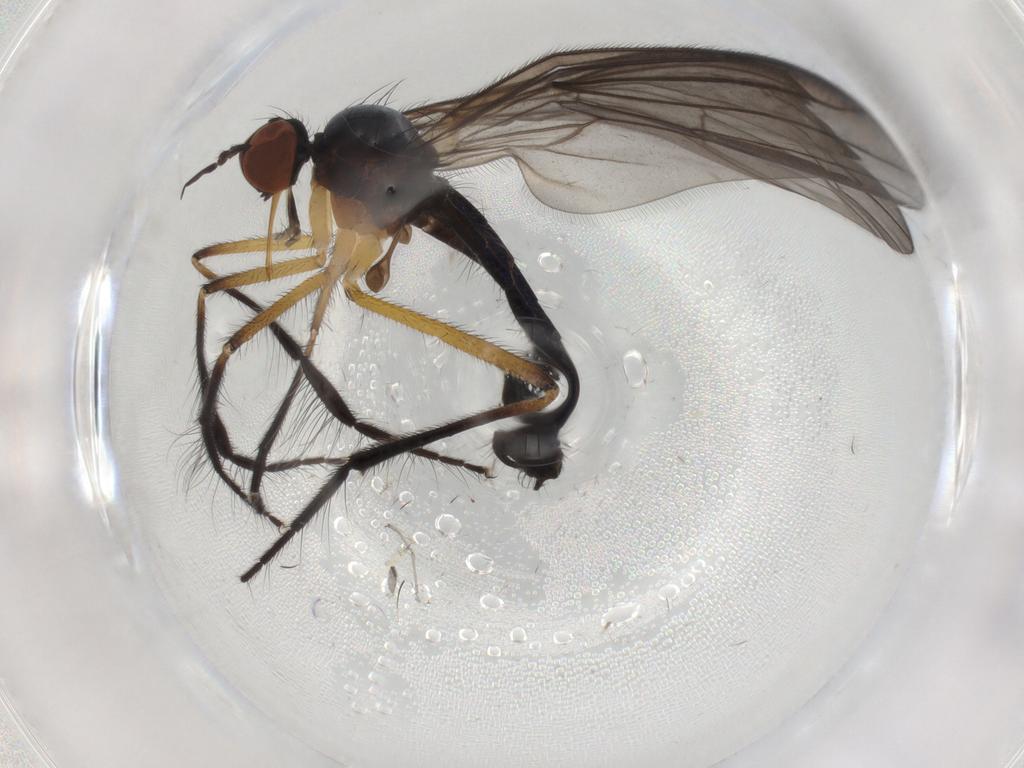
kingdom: Animalia
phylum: Arthropoda
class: Insecta
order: Diptera
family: Empididae
